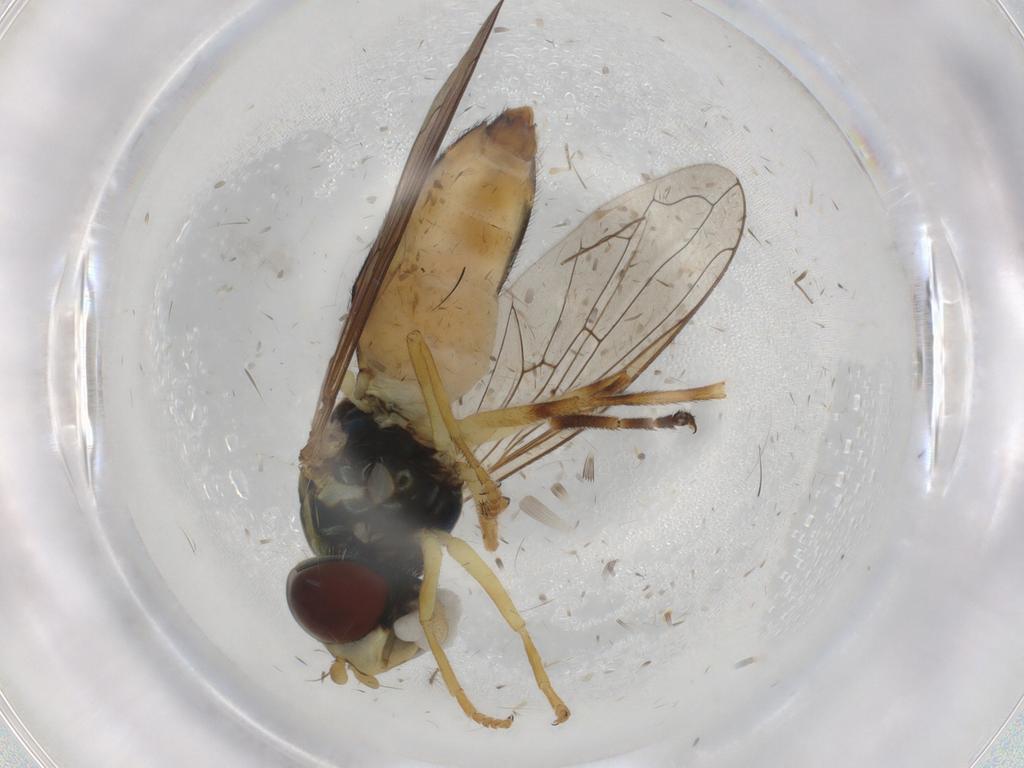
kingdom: Animalia
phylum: Arthropoda
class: Insecta
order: Diptera
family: Syrphidae
